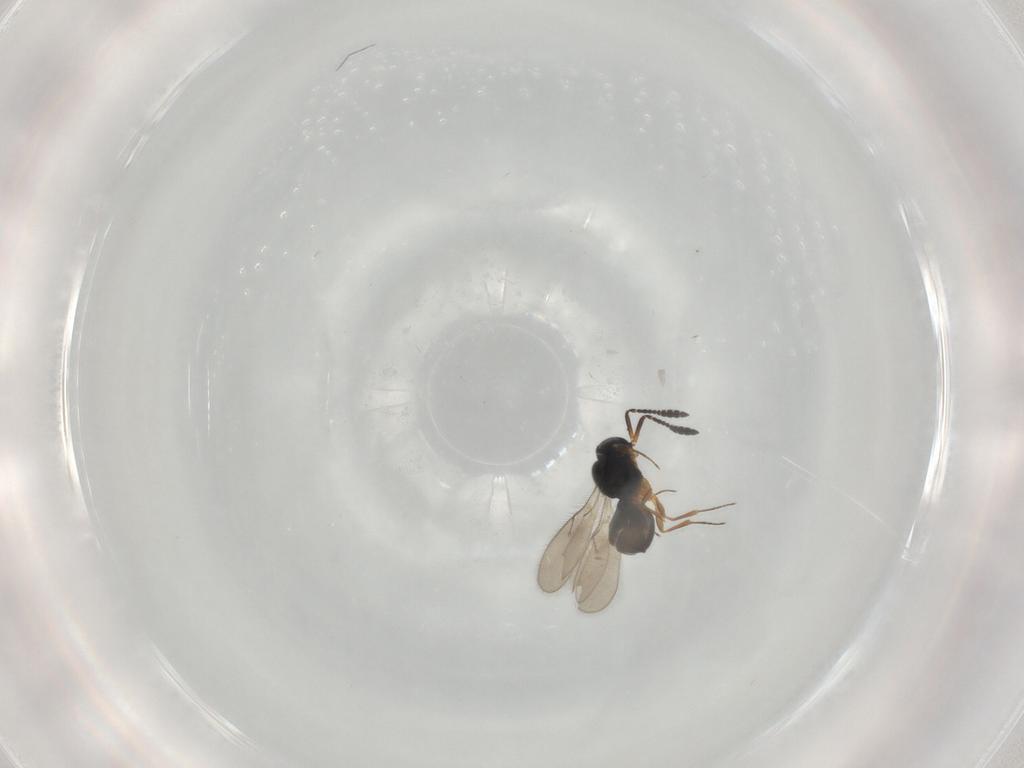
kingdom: Animalia
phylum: Arthropoda
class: Insecta
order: Hymenoptera
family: Scelionidae
